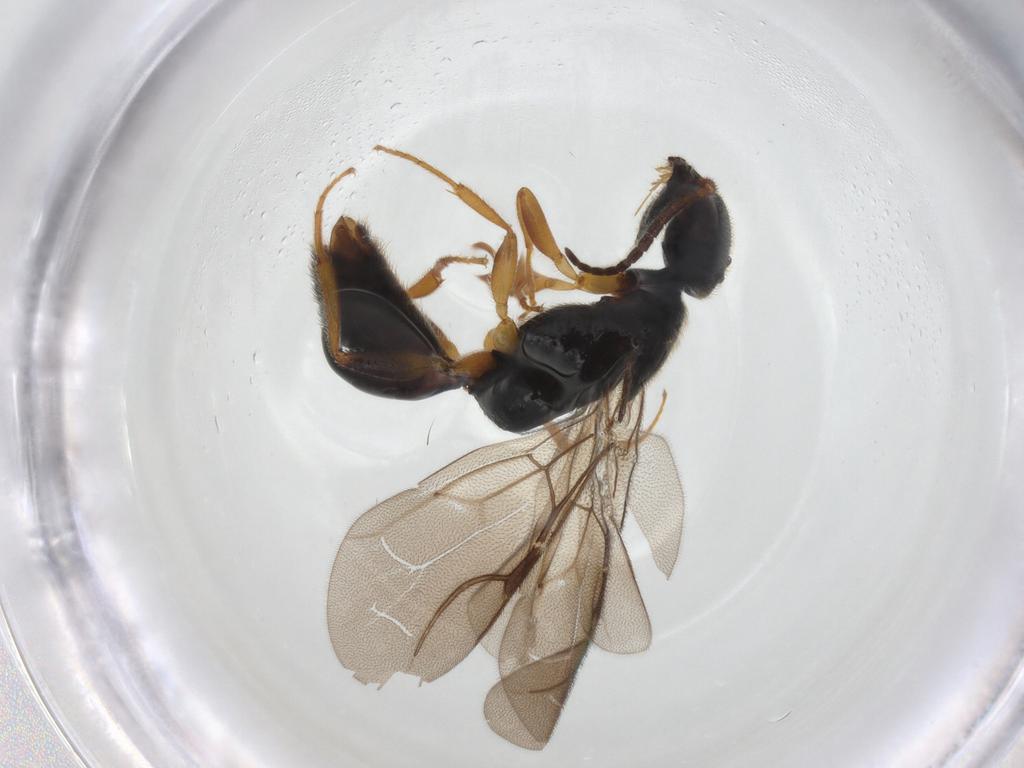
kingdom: Animalia
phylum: Arthropoda
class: Insecta
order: Hymenoptera
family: Bethylidae
